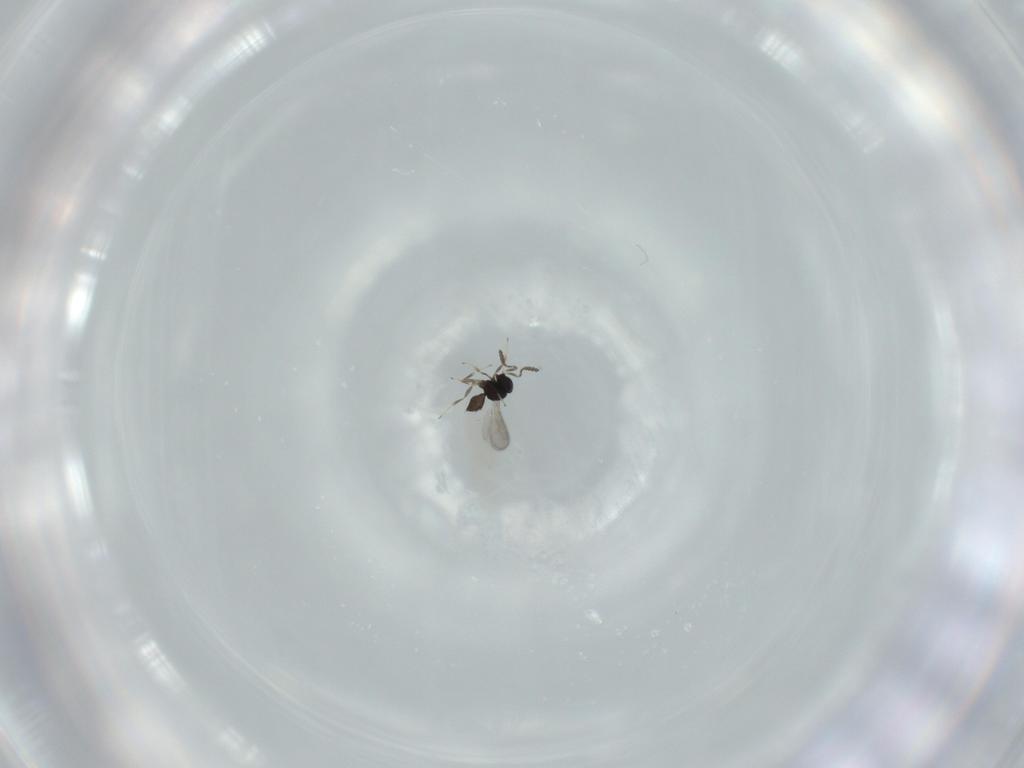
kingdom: Animalia
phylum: Arthropoda
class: Insecta
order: Hymenoptera
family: Scelionidae
